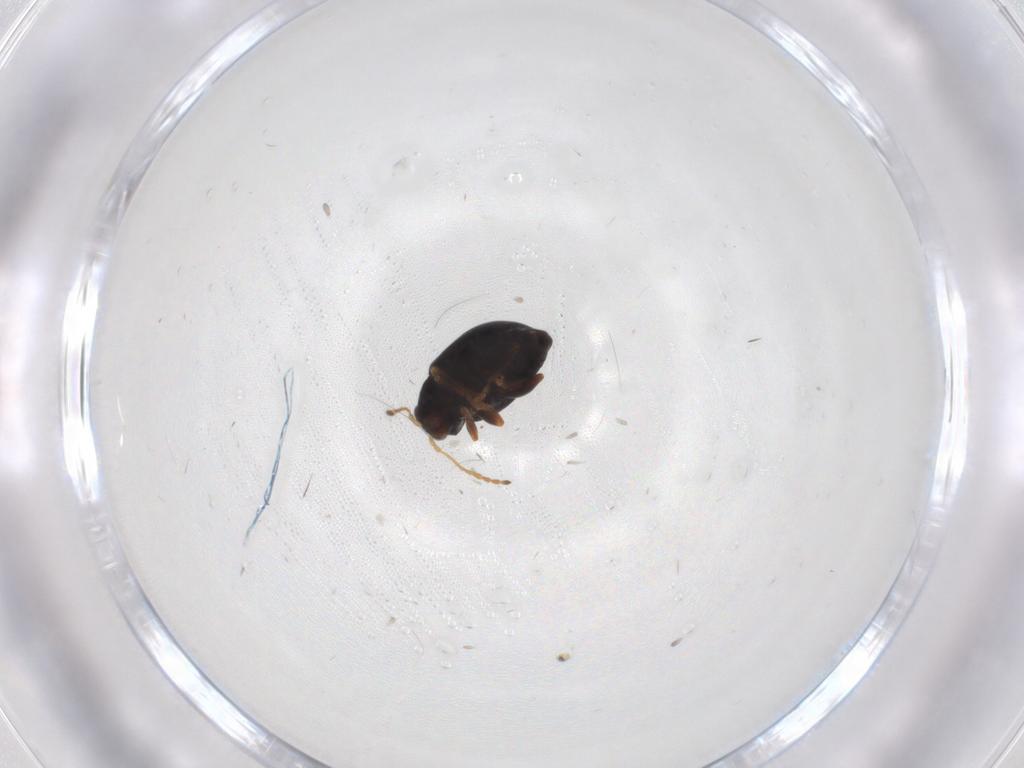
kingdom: Animalia
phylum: Arthropoda
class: Insecta
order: Coleoptera
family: Chrysomelidae
